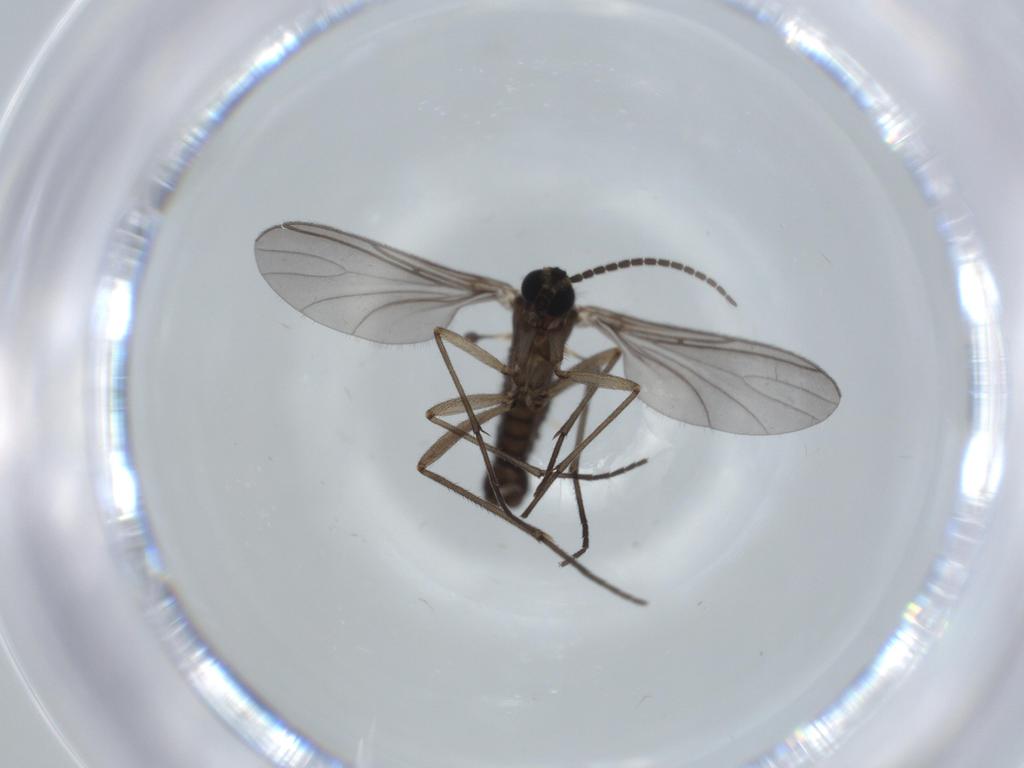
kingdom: Animalia
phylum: Arthropoda
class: Insecta
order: Diptera
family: Sciaridae
